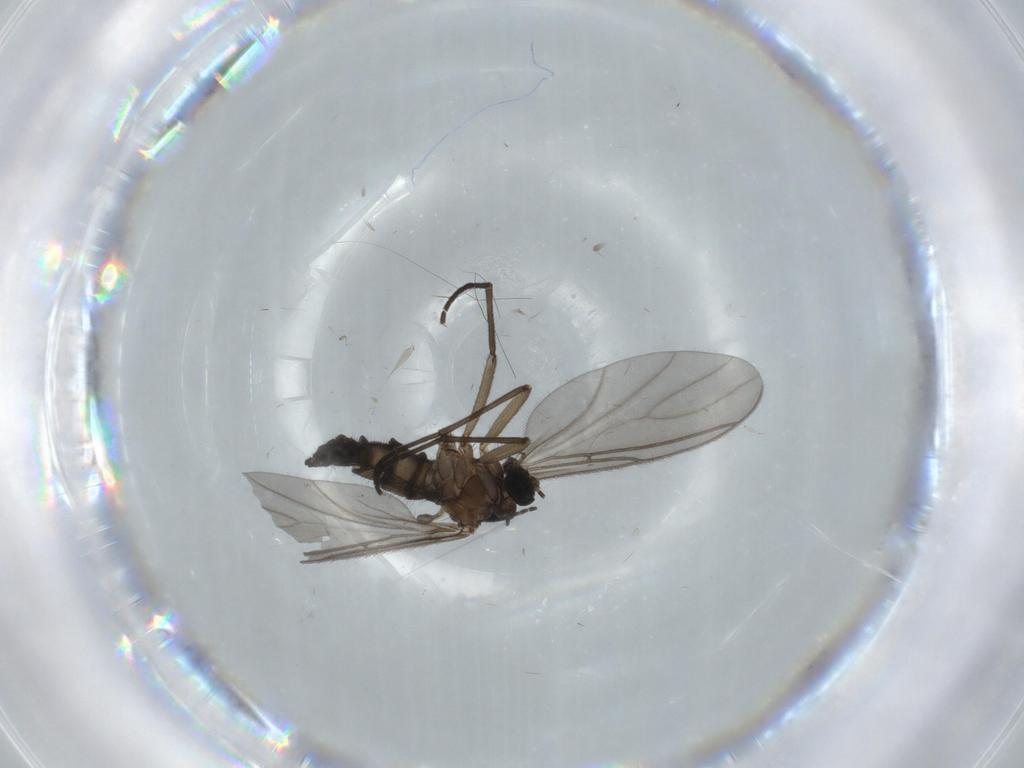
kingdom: Animalia
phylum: Arthropoda
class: Insecta
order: Diptera
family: Sciaridae
